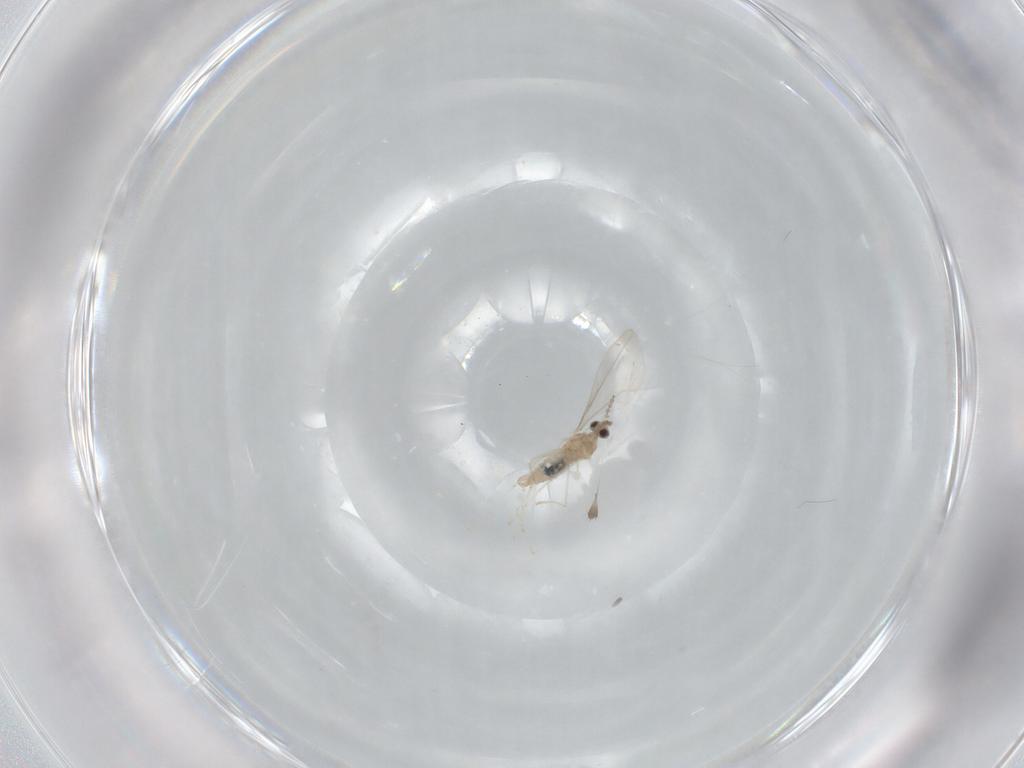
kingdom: Animalia
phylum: Arthropoda
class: Insecta
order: Diptera
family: Cecidomyiidae
